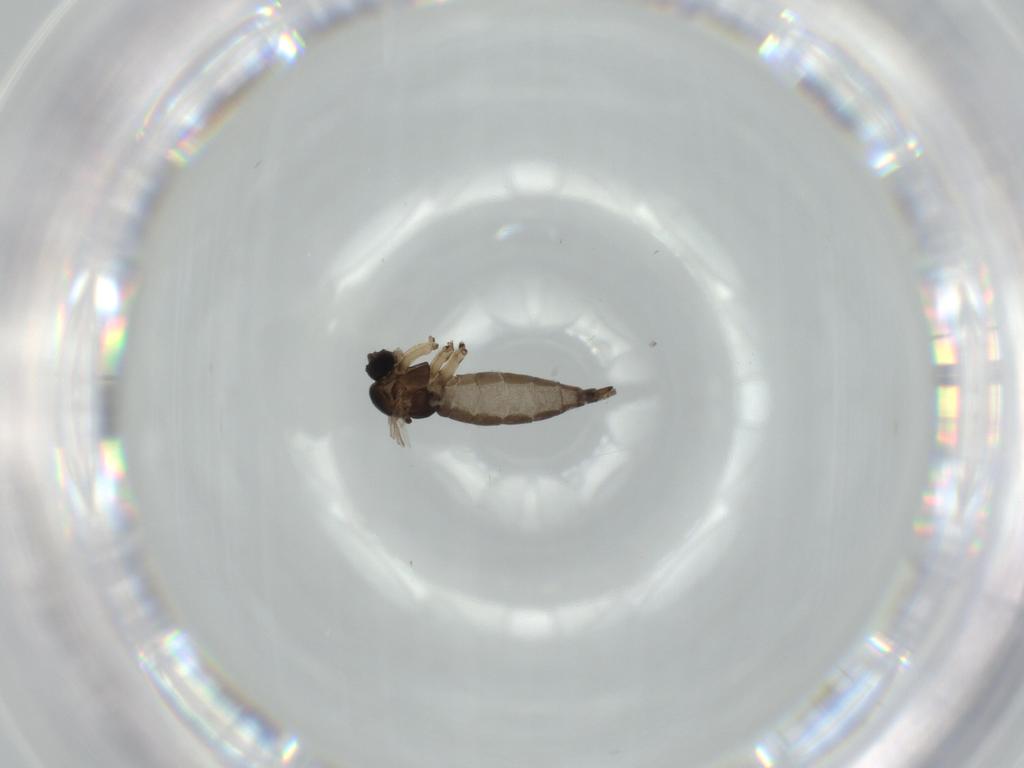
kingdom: Animalia
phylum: Arthropoda
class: Insecta
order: Diptera
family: Sciaridae
